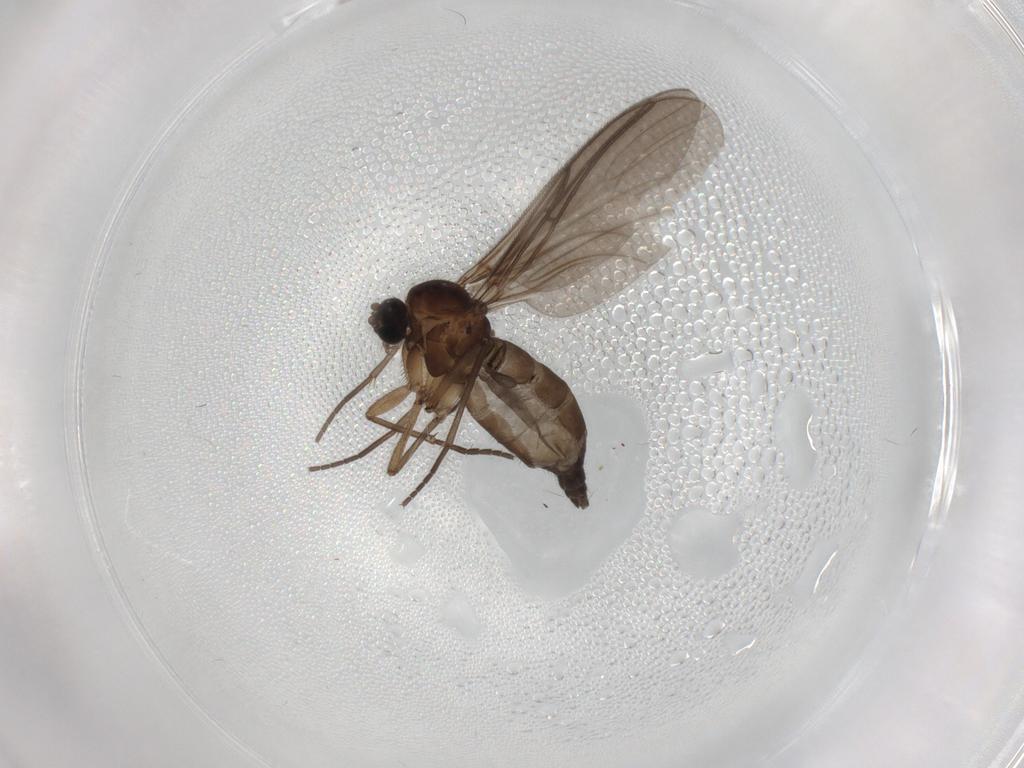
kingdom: Animalia
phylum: Arthropoda
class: Insecta
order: Diptera
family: Sciaridae
